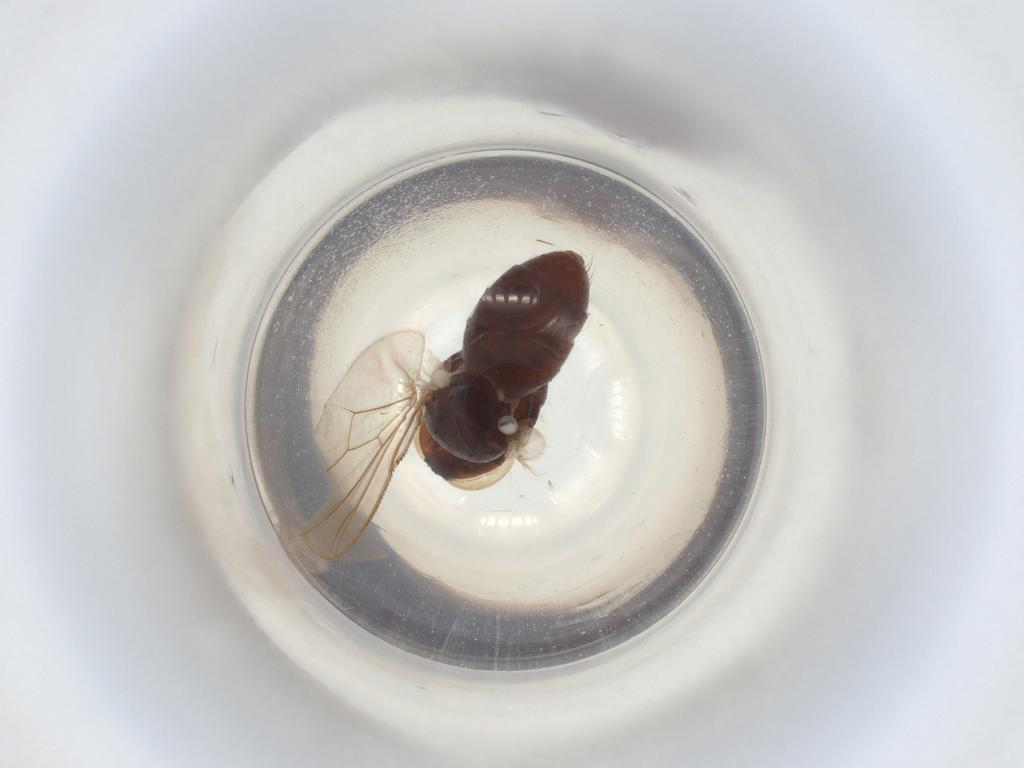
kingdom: Animalia
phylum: Arthropoda
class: Insecta
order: Diptera
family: Muscidae
